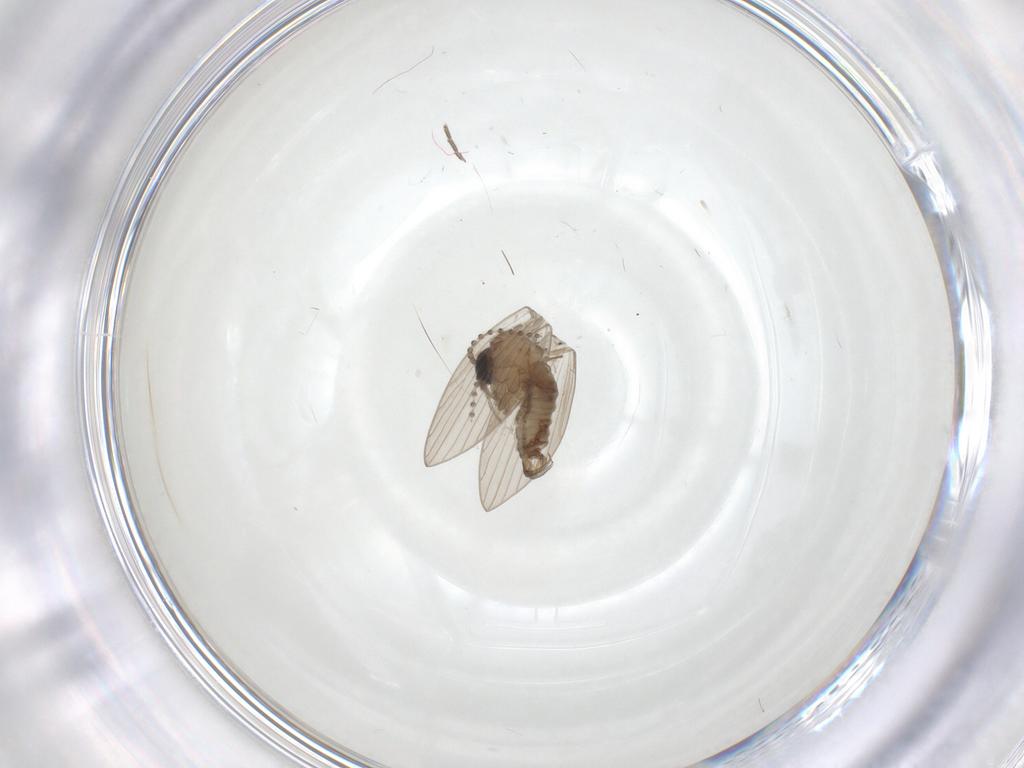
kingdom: Animalia
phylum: Arthropoda
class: Insecta
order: Diptera
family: Psychodidae
